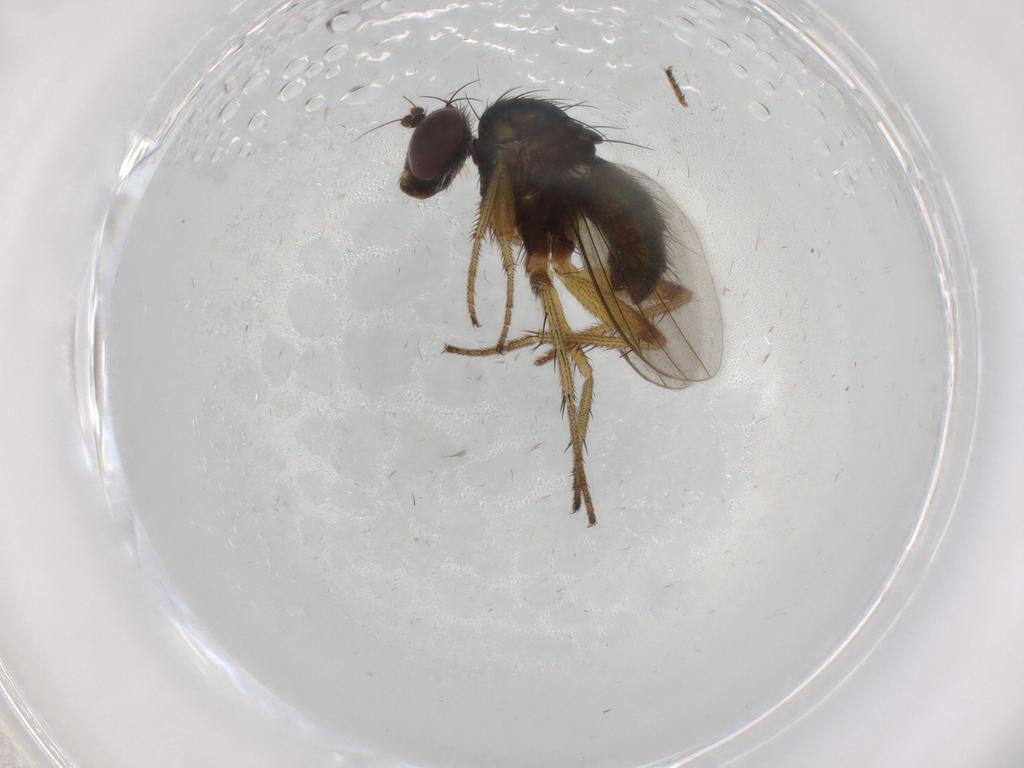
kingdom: Animalia
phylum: Arthropoda
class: Insecta
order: Diptera
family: Dolichopodidae
